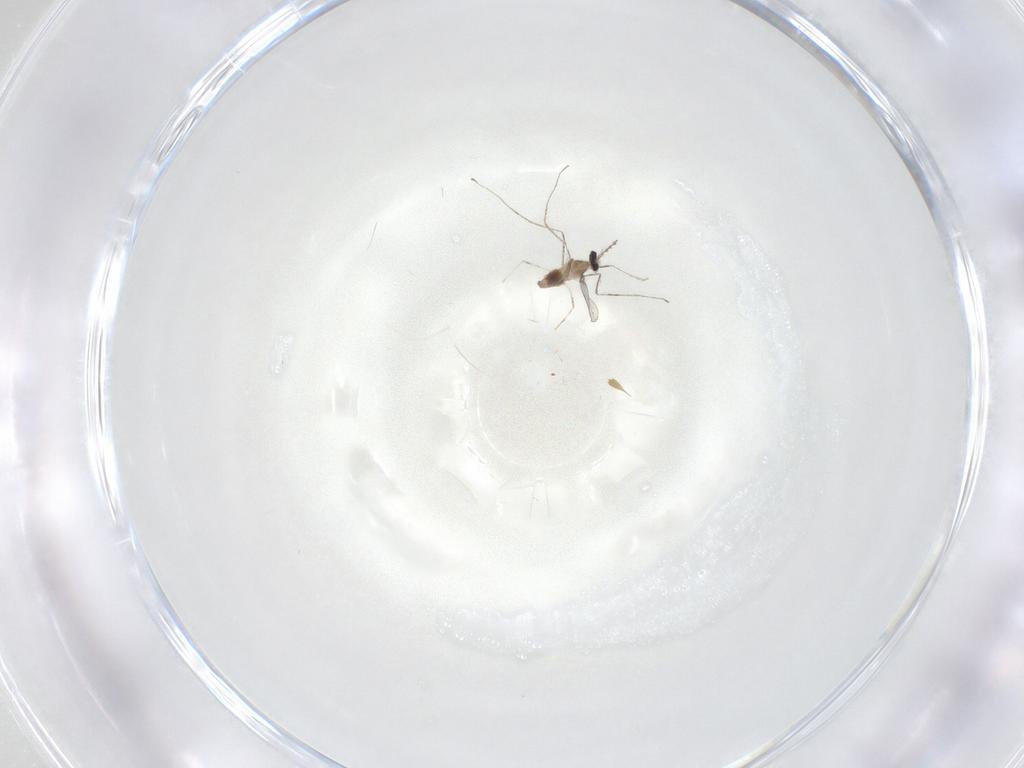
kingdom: Animalia
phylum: Arthropoda
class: Insecta
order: Diptera
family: Cecidomyiidae
